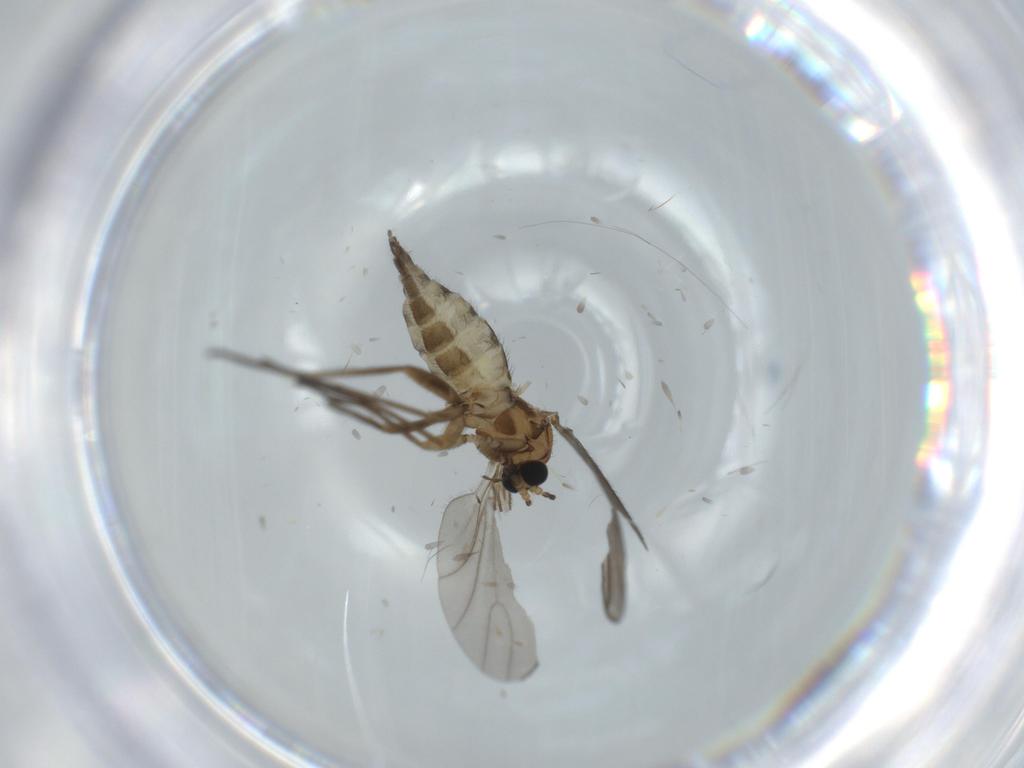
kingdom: Animalia
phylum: Arthropoda
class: Insecta
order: Diptera
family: Sciaridae
